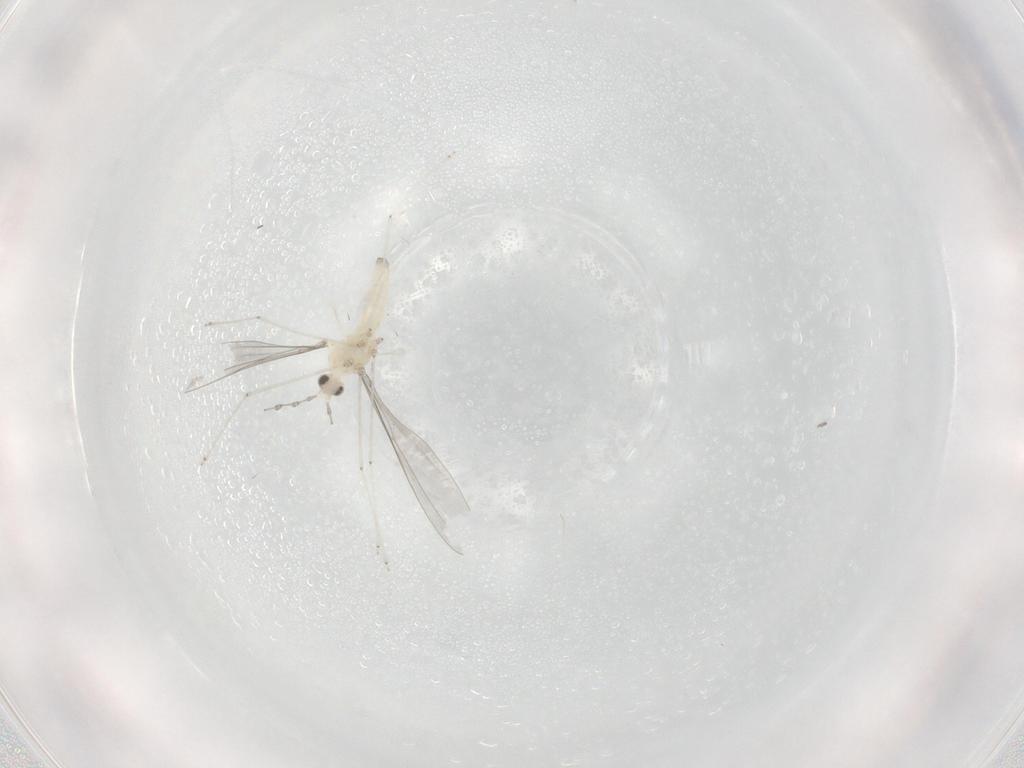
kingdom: Animalia
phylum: Arthropoda
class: Insecta
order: Diptera
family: Cecidomyiidae
